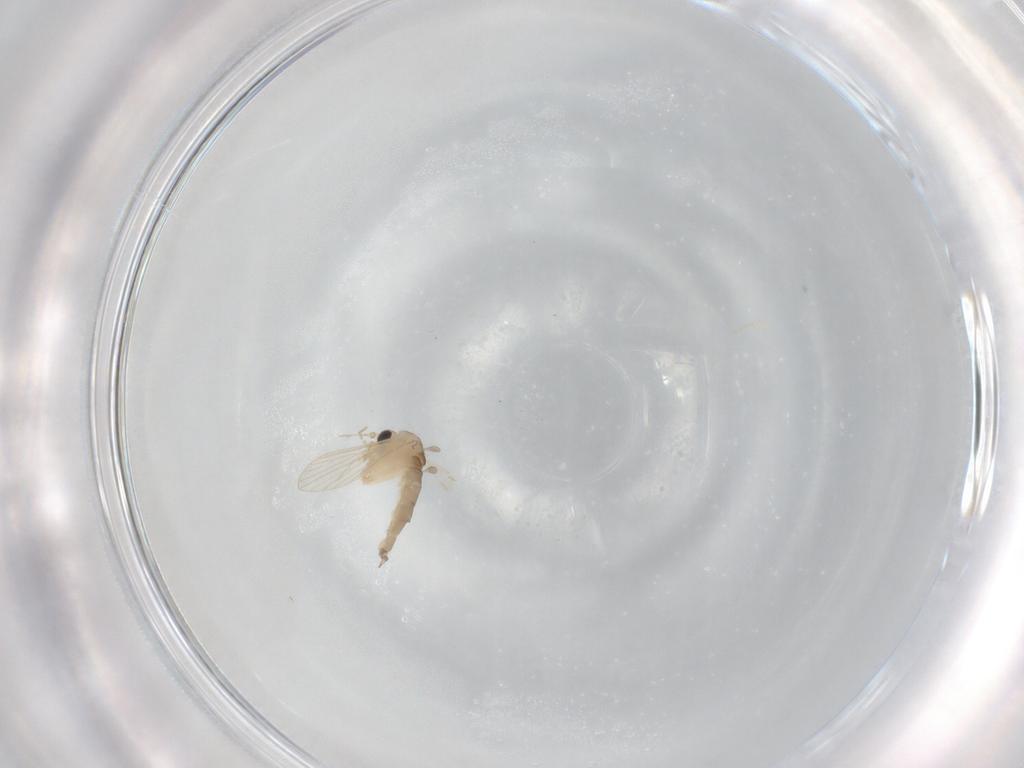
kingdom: Animalia
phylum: Arthropoda
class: Insecta
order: Diptera
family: Psychodidae
